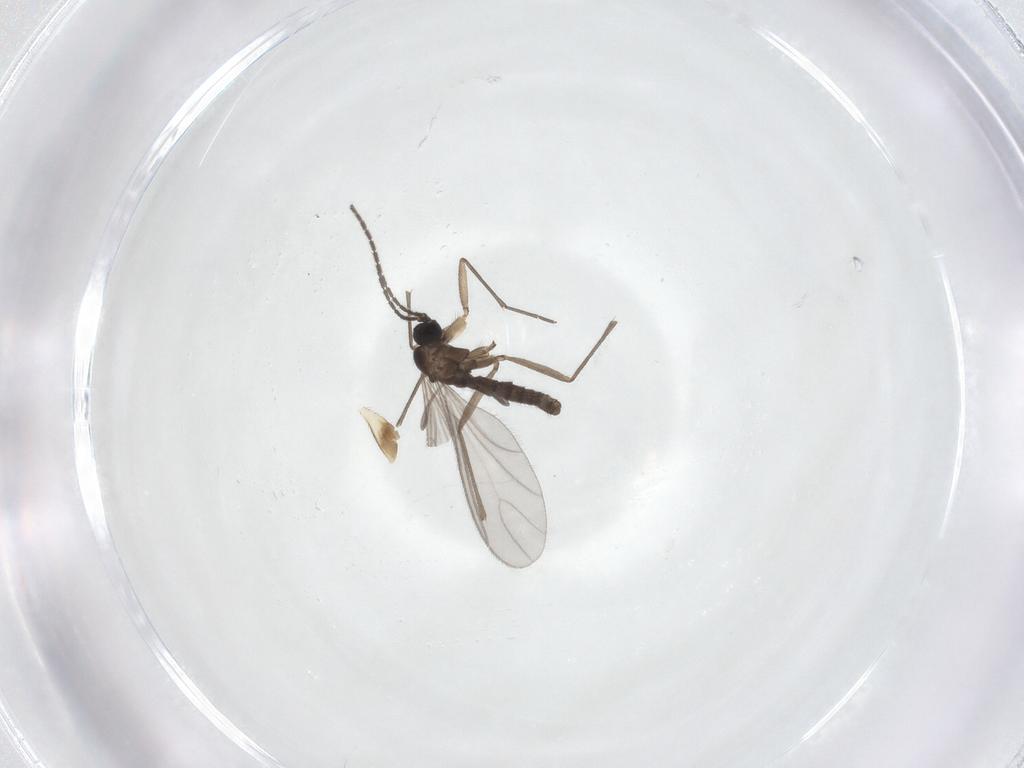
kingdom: Animalia
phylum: Arthropoda
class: Insecta
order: Diptera
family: Sciaridae
